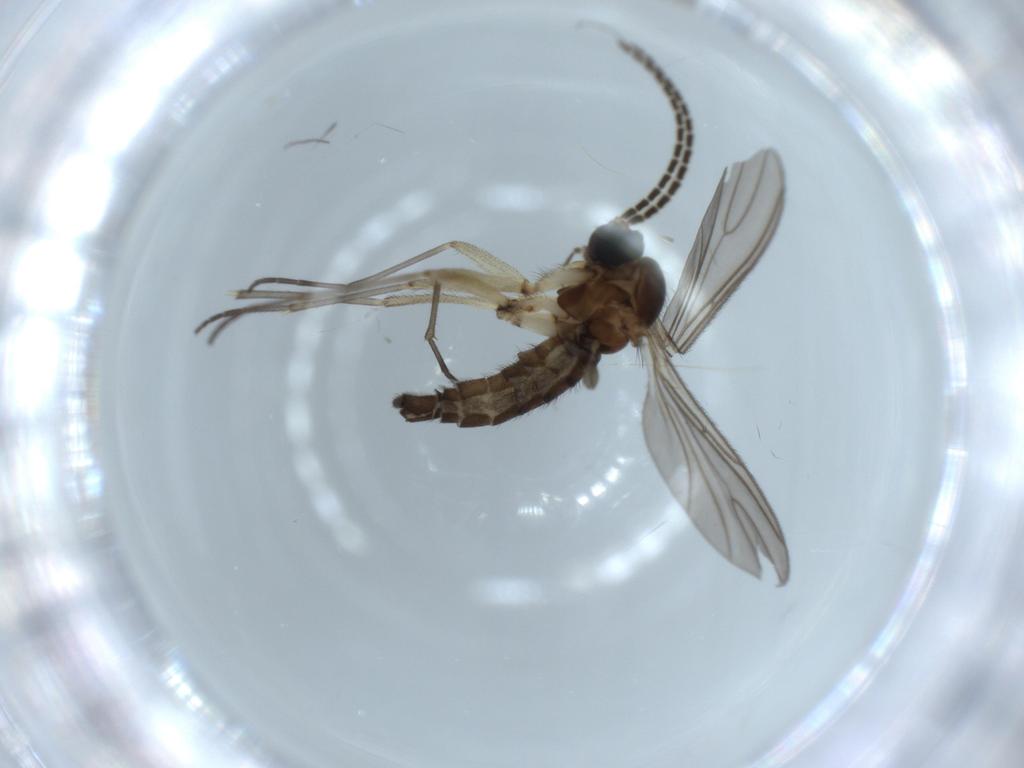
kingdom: Animalia
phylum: Arthropoda
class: Insecta
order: Diptera
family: Sciaridae
